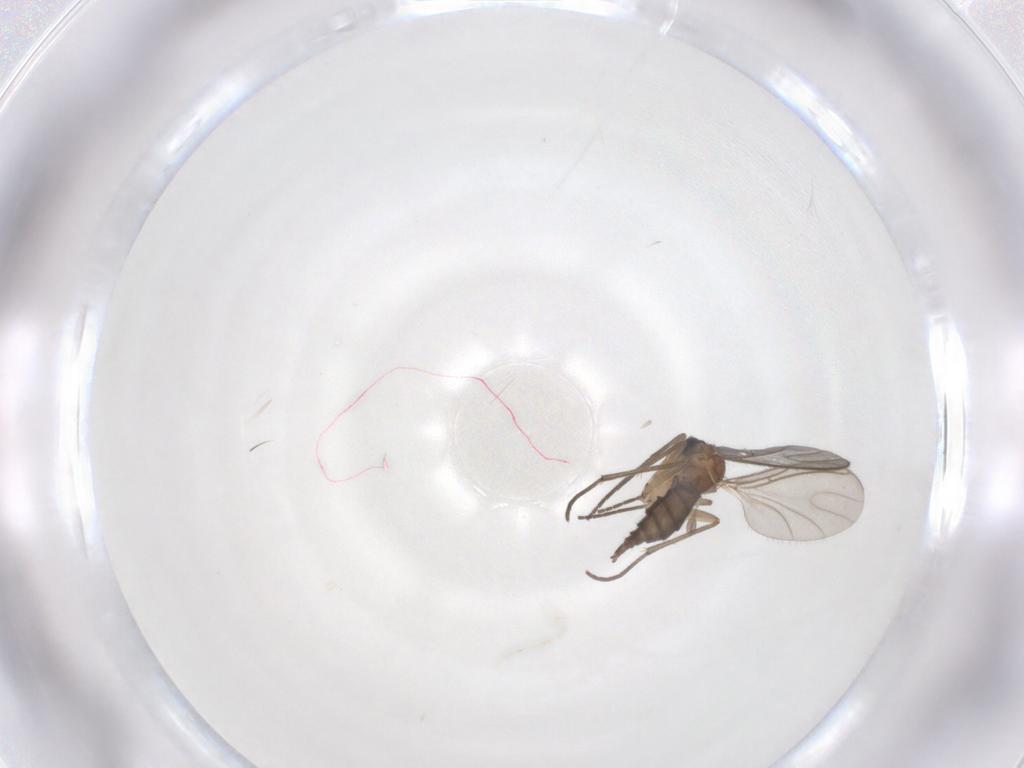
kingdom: Animalia
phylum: Arthropoda
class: Insecta
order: Diptera
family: Sciaridae
